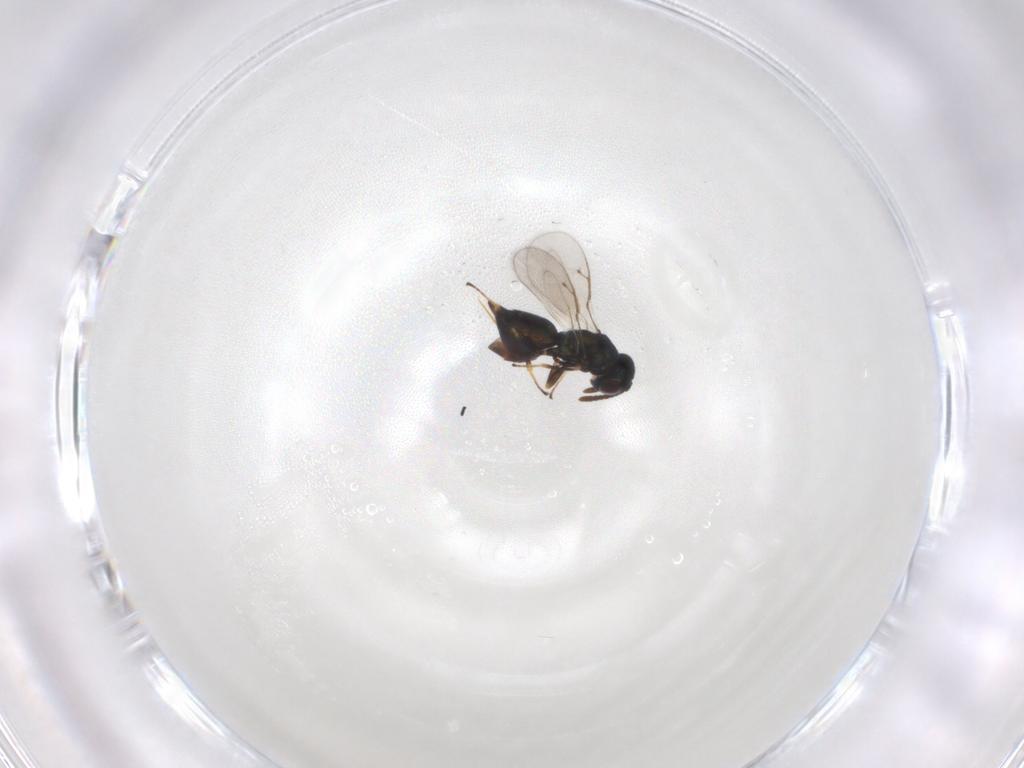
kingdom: Animalia
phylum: Arthropoda
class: Insecta
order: Hymenoptera
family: Pteromalidae
